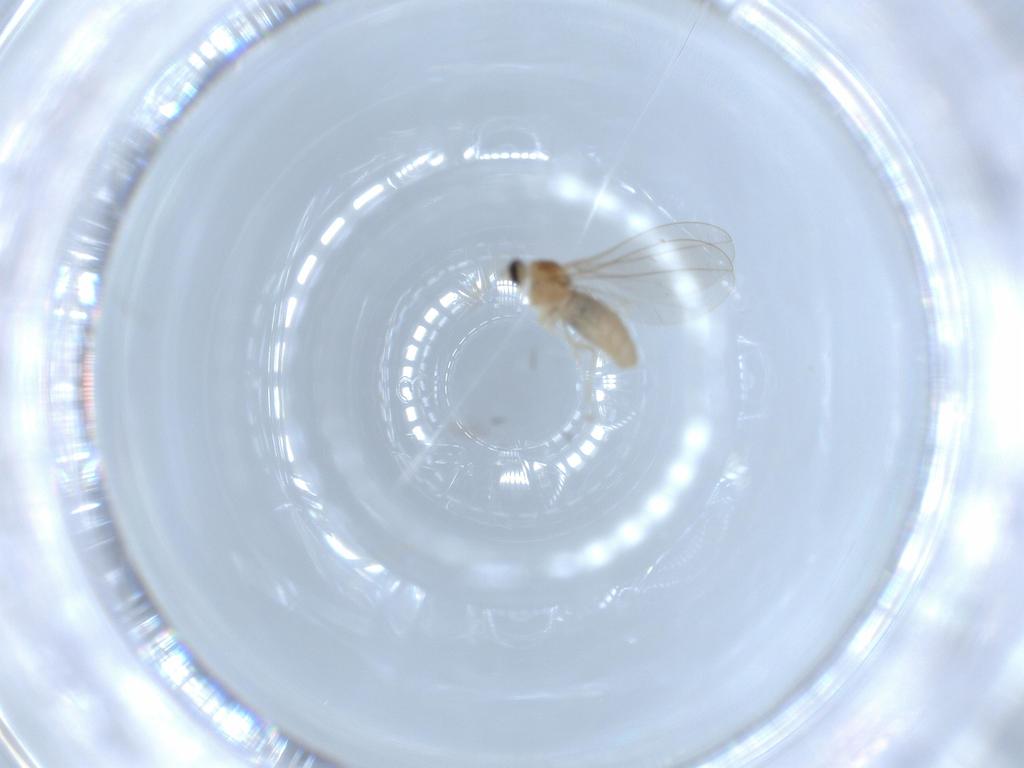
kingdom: Animalia
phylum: Arthropoda
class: Insecta
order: Diptera
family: Cecidomyiidae
